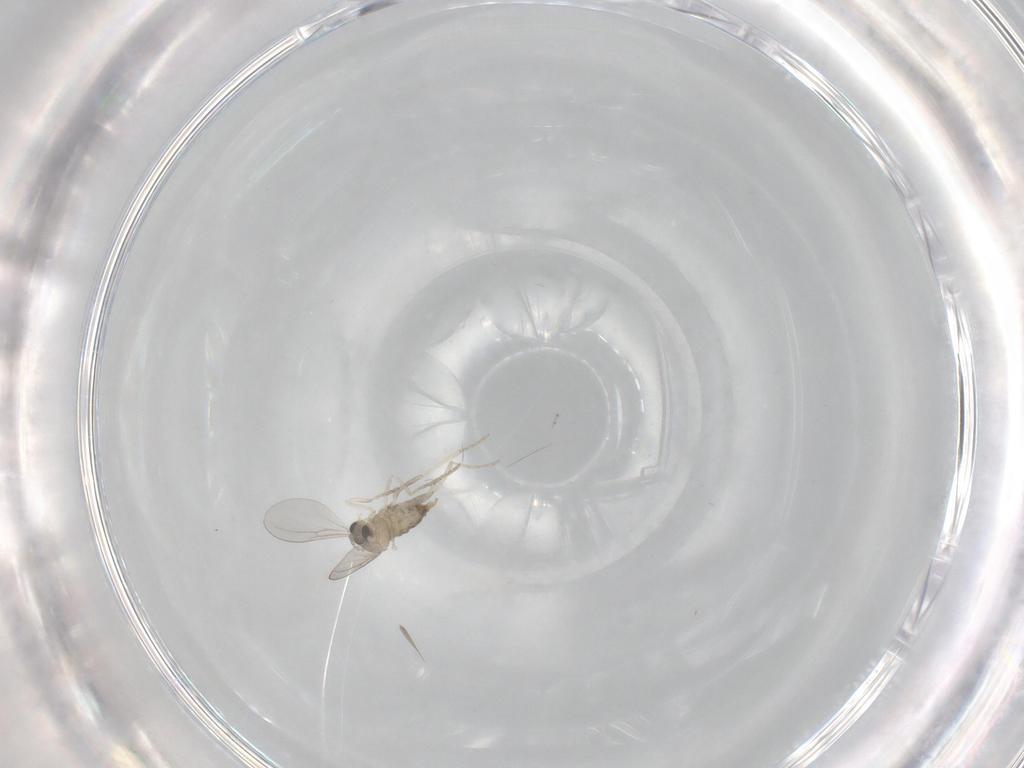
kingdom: Animalia
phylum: Arthropoda
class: Insecta
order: Diptera
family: Cecidomyiidae
